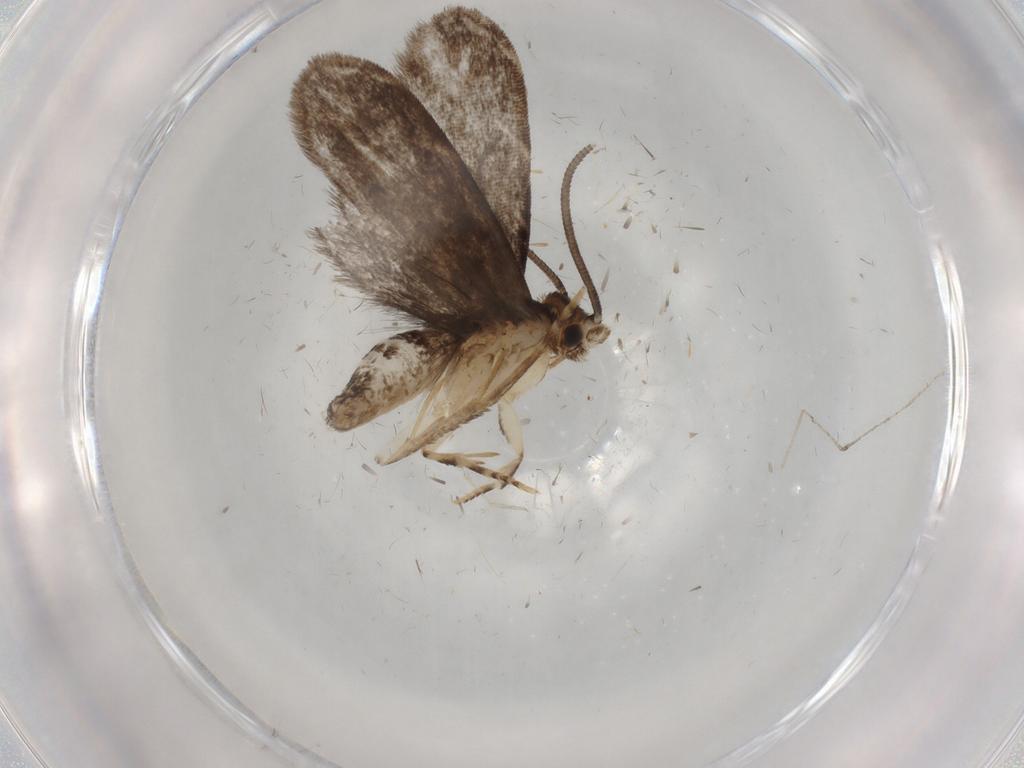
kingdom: Animalia
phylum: Arthropoda
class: Insecta
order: Lepidoptera
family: Dryadaulidae
